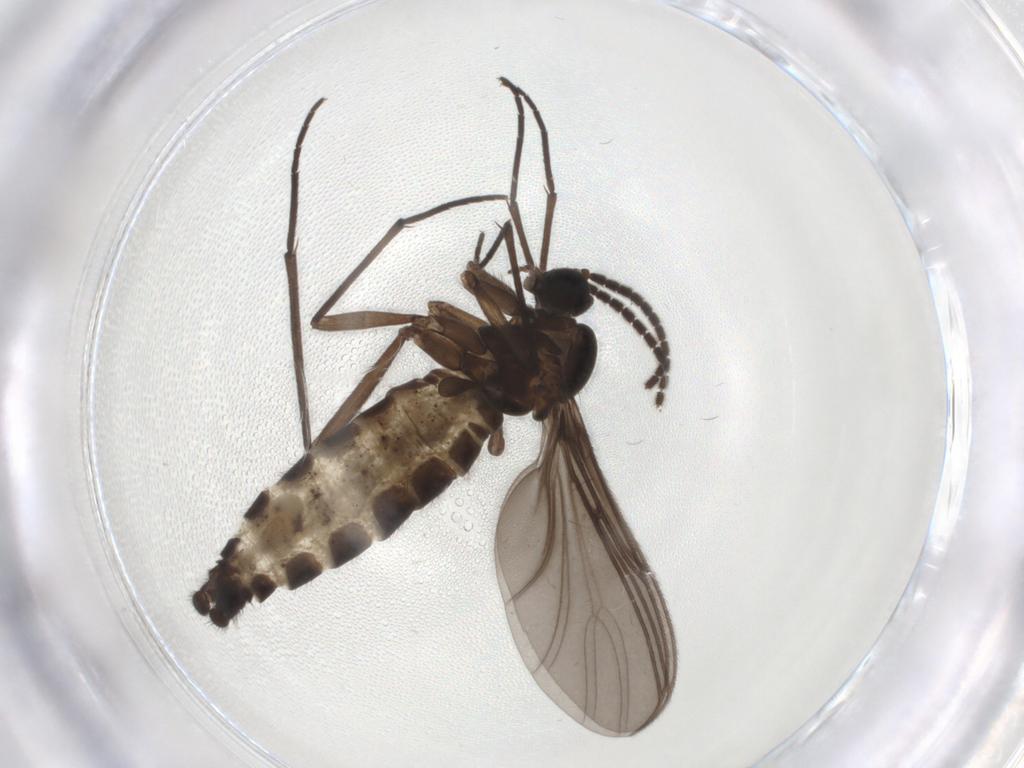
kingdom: Animalia
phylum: Arthropoda
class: Insecta
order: Diptera
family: Sciaridae
